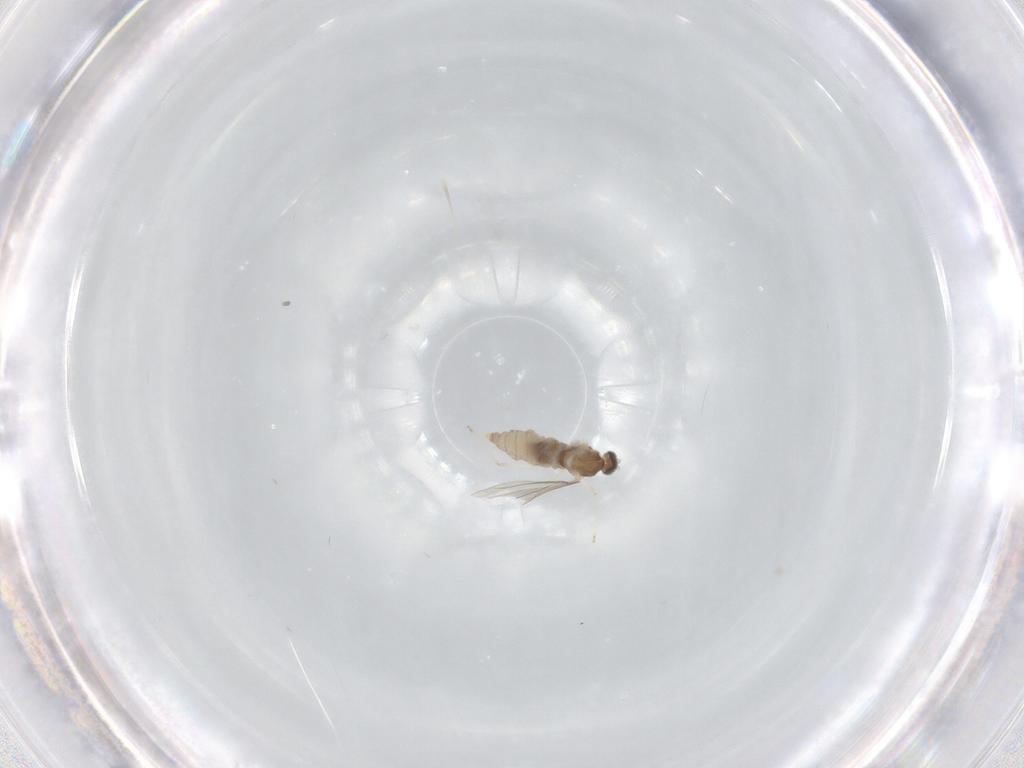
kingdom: Animalia
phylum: Arthropoda
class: Insecta
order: Diptera
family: Cecidomyiidae
